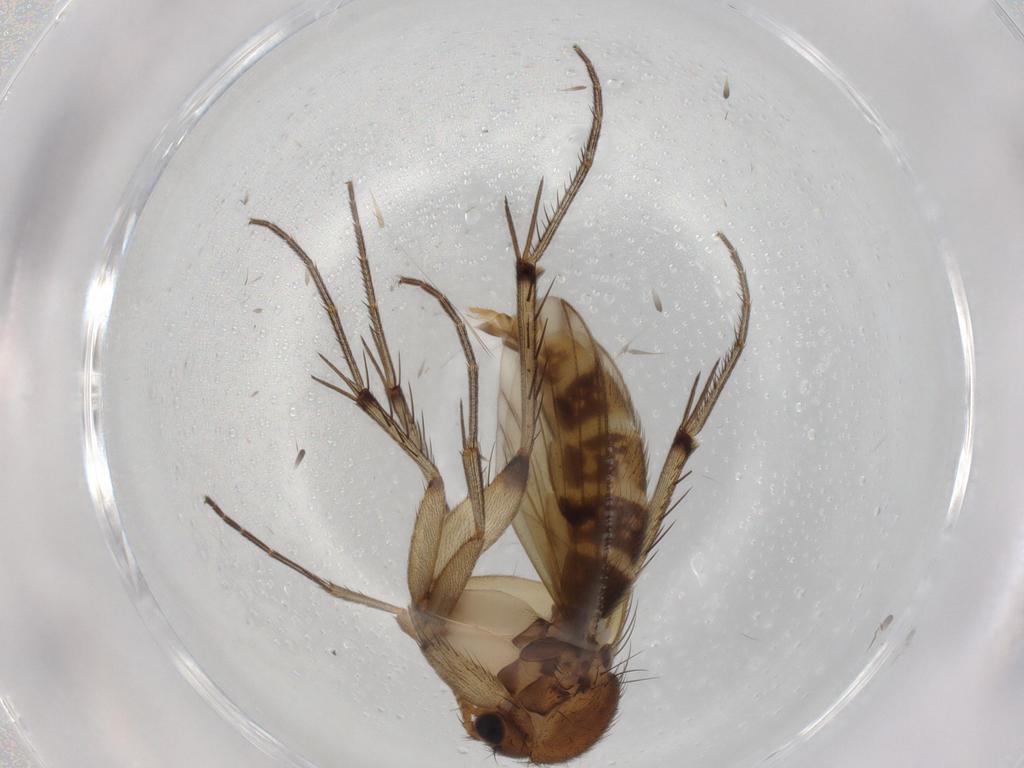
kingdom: Animalia
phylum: Arthropoda
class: Insecta
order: Diptera
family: Mycetophilidae
